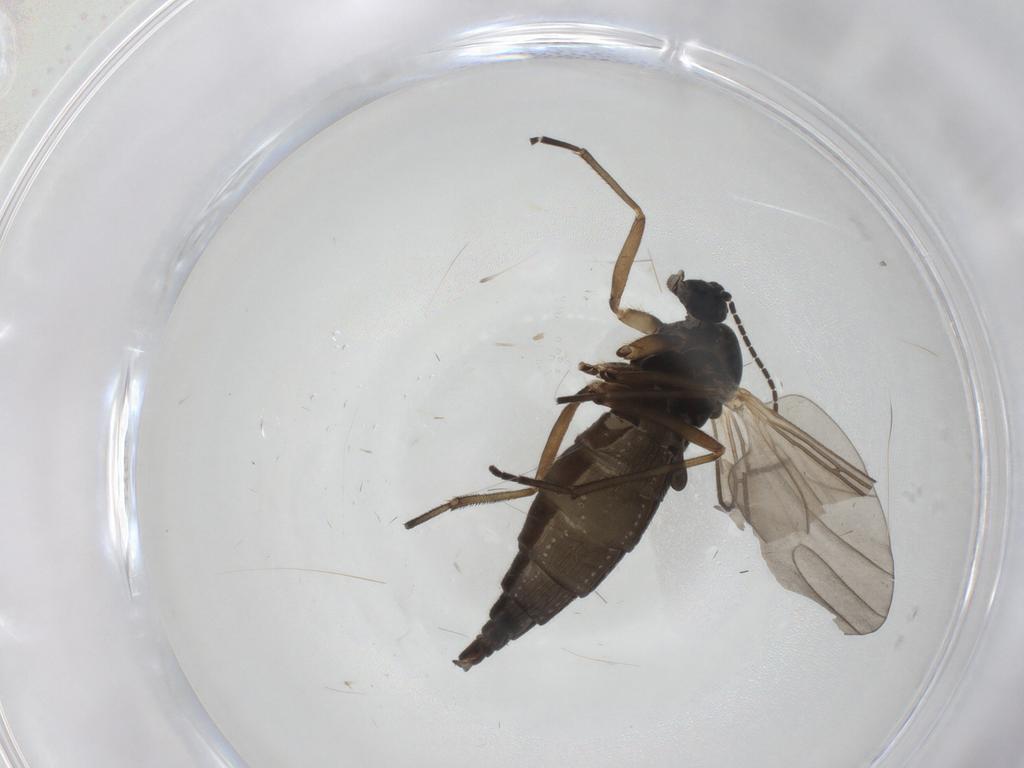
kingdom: Animalia
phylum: Arthropoda
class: Insecta
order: Diptera
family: Sciaridae
